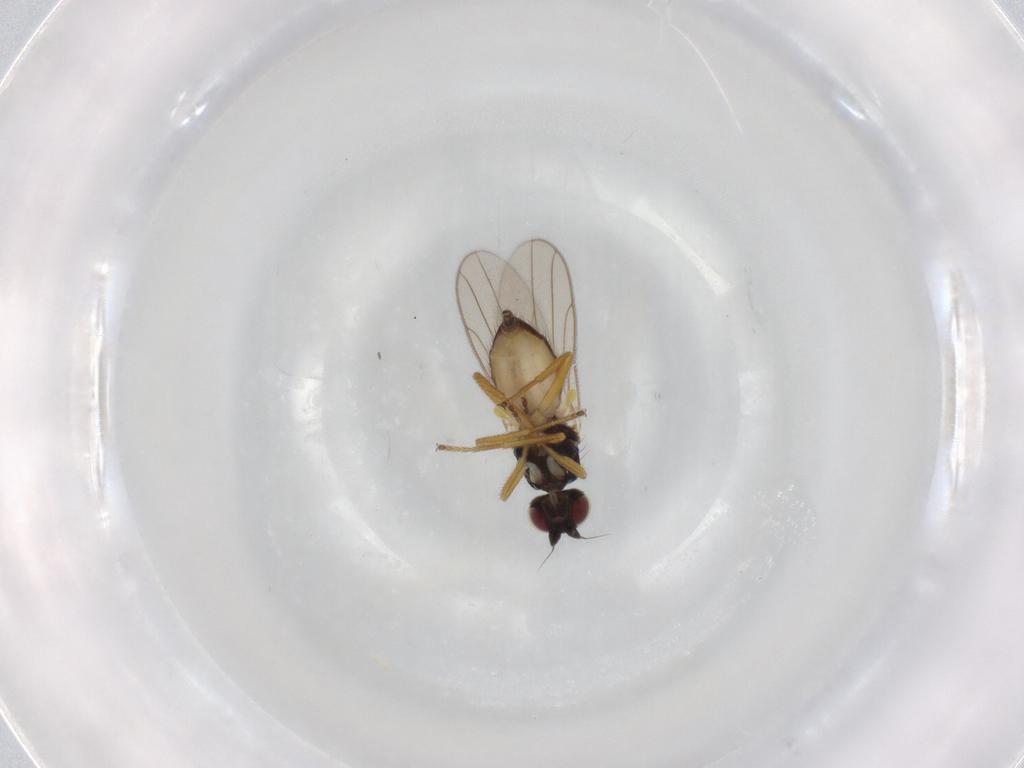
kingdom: Animalia
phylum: Arthropoda
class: Insecta
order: Diptera
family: Chloropidae
